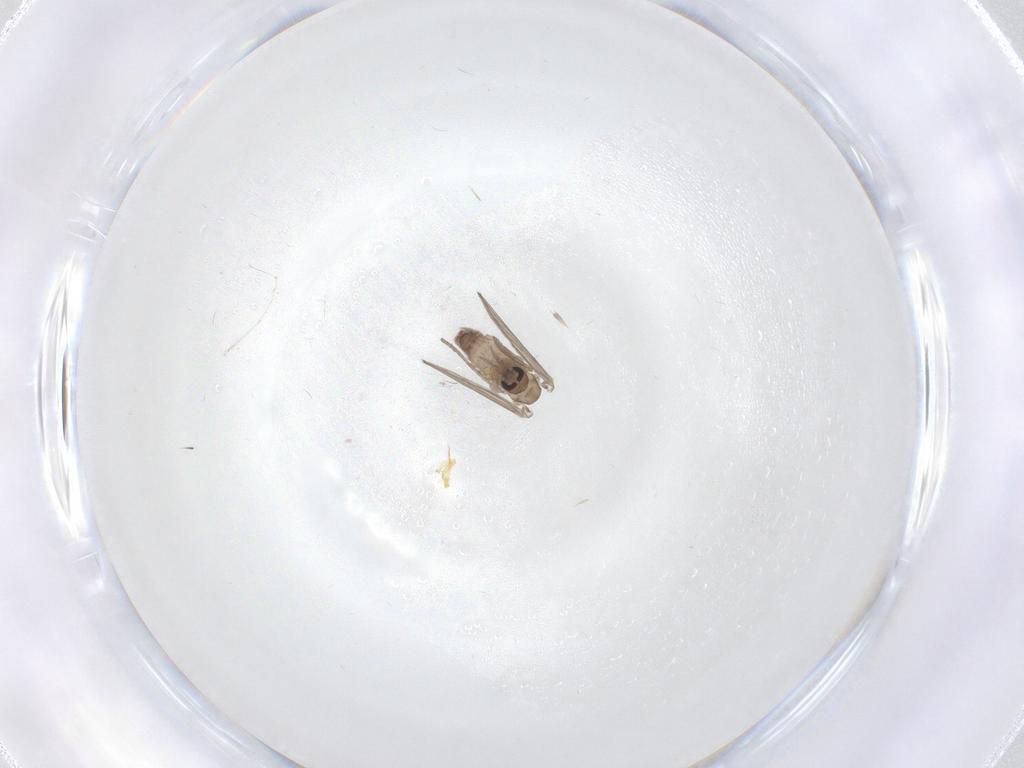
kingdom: Animalia
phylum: Arthropoda
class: Insecta
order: Diptera
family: Psychodidae
